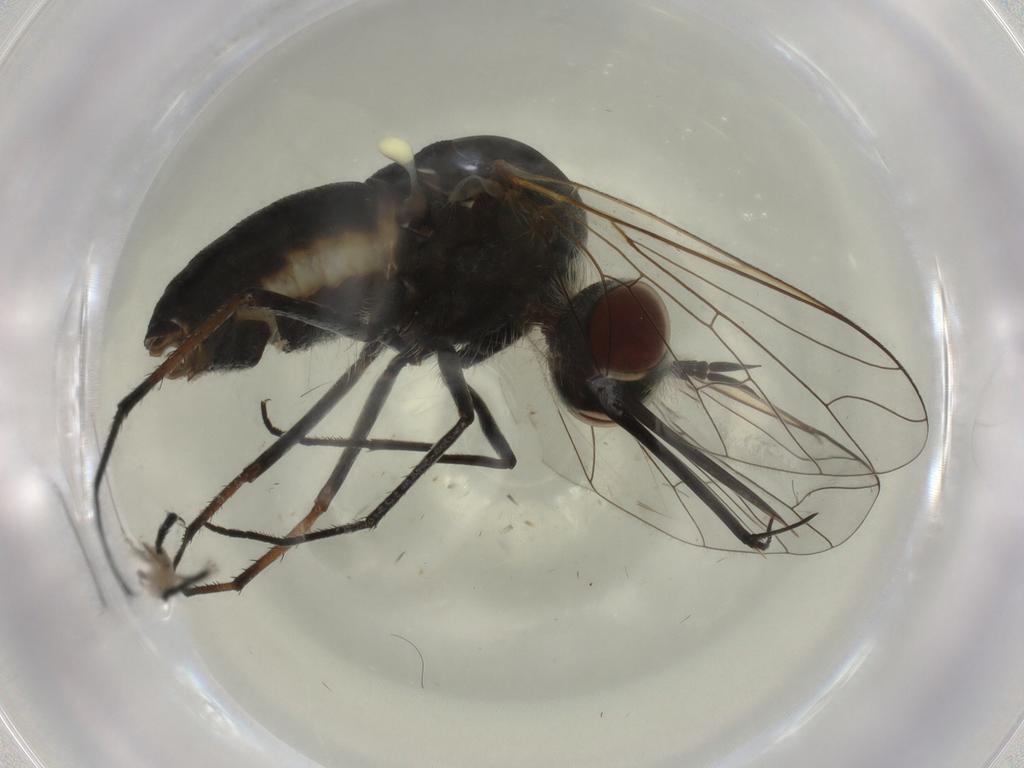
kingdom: Animalia
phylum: Arthropoda
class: Insecta
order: Diptera
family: Bombyliidae
